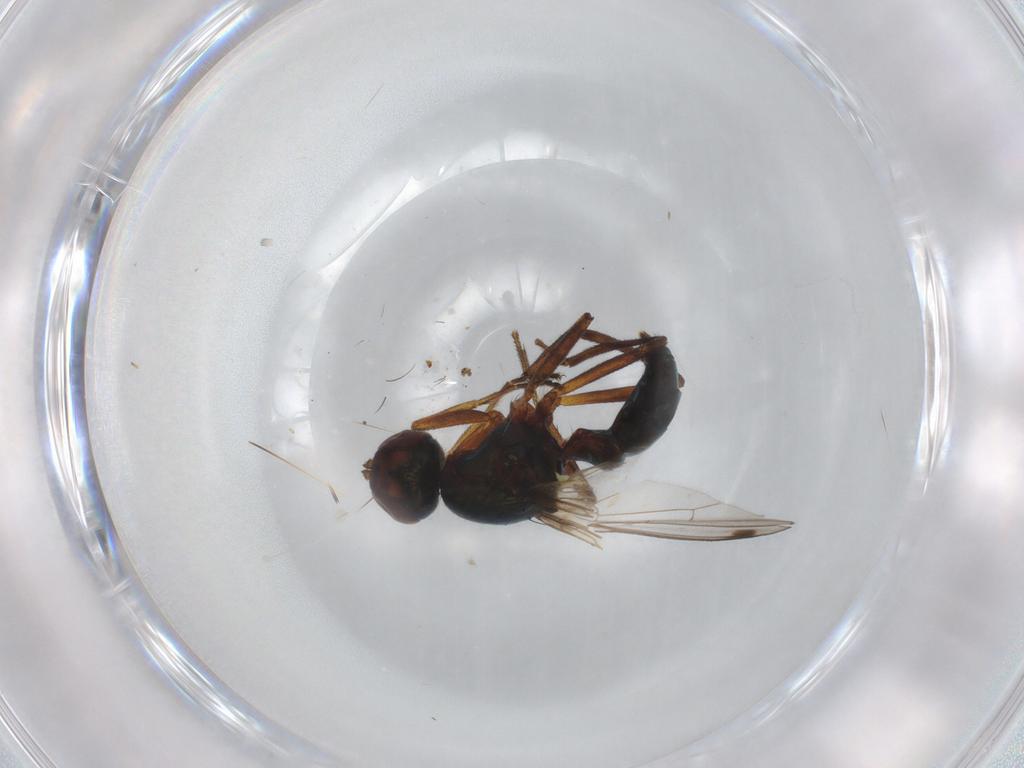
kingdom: Animalia
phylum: Arthropoda
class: Insecta
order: Diptera
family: Sepsidae
